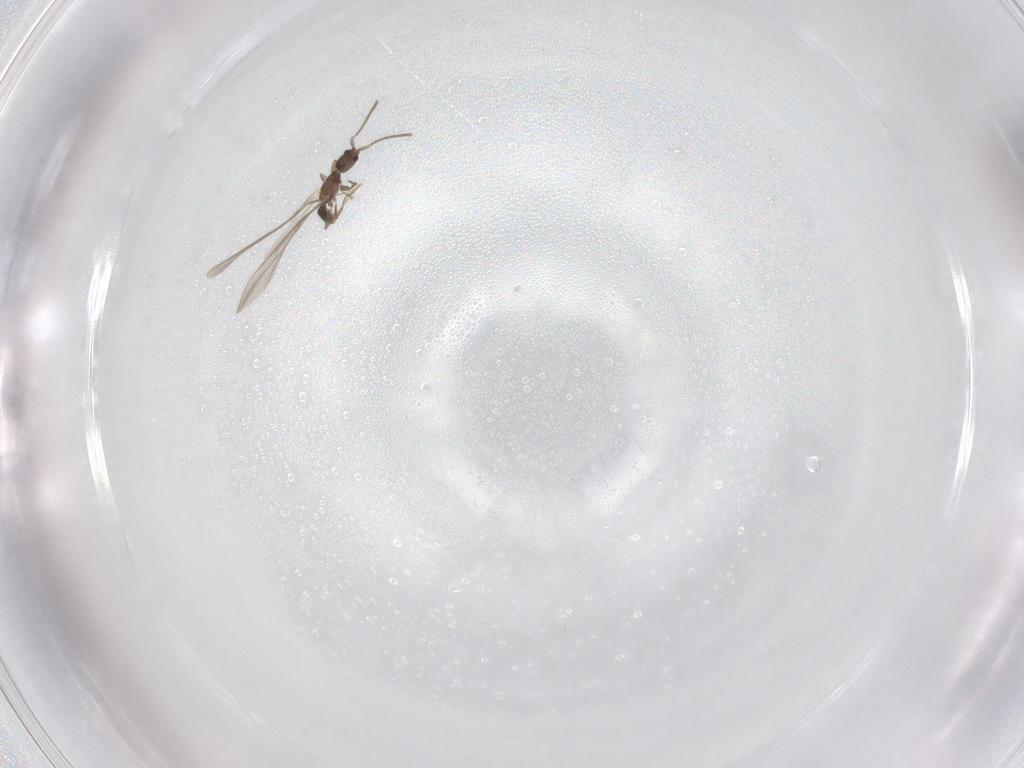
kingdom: Animalia
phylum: Arthropoda
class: Insecta
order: Hymenoptera
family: Formicidae
